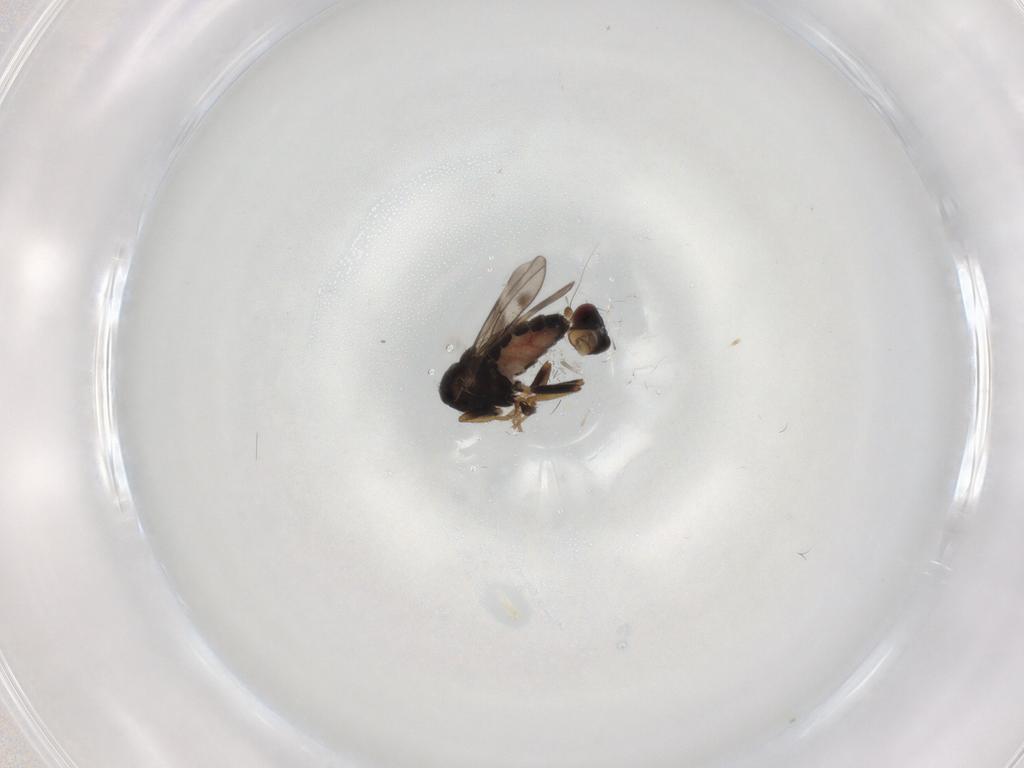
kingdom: Animalia
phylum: Arthropoda
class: Insecta
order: Diptera
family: Sphaeroceridae
